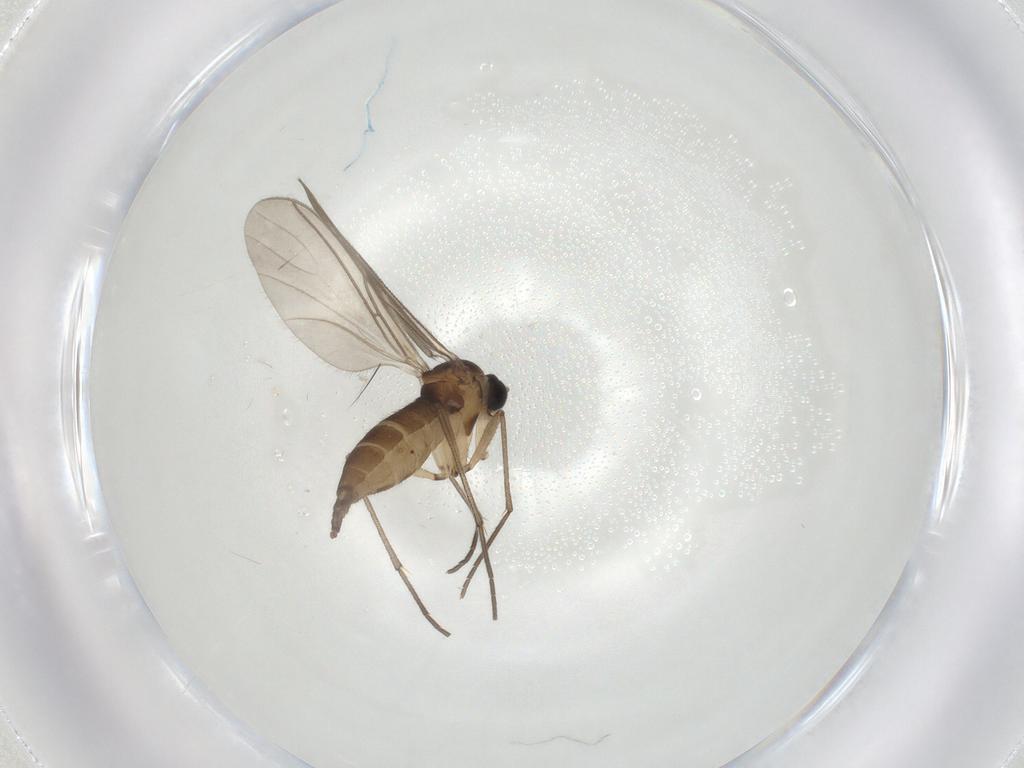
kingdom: Animalia
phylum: Arthropoda
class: Insecta
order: Diptera
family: Sciaridae
